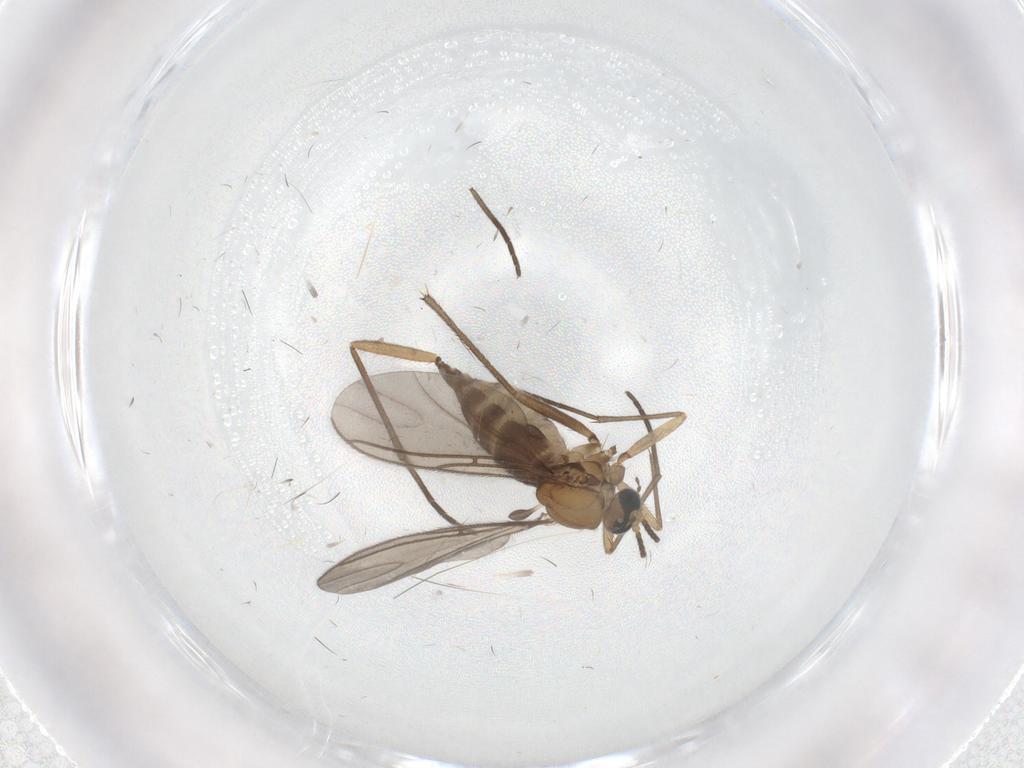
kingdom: Animalia
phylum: Arthropoda
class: Insecta
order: Diptera
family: Sciaridae
